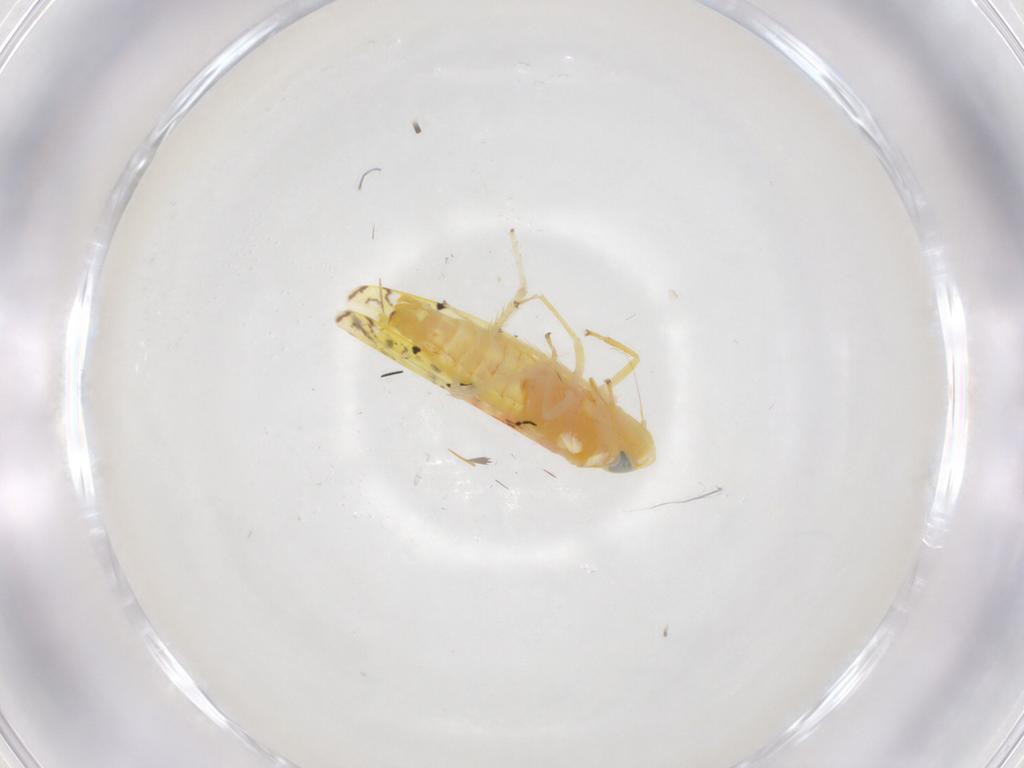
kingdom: Animalia
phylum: Arthropoda
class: Insecta
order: Hemiptera
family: Cicadellidae
